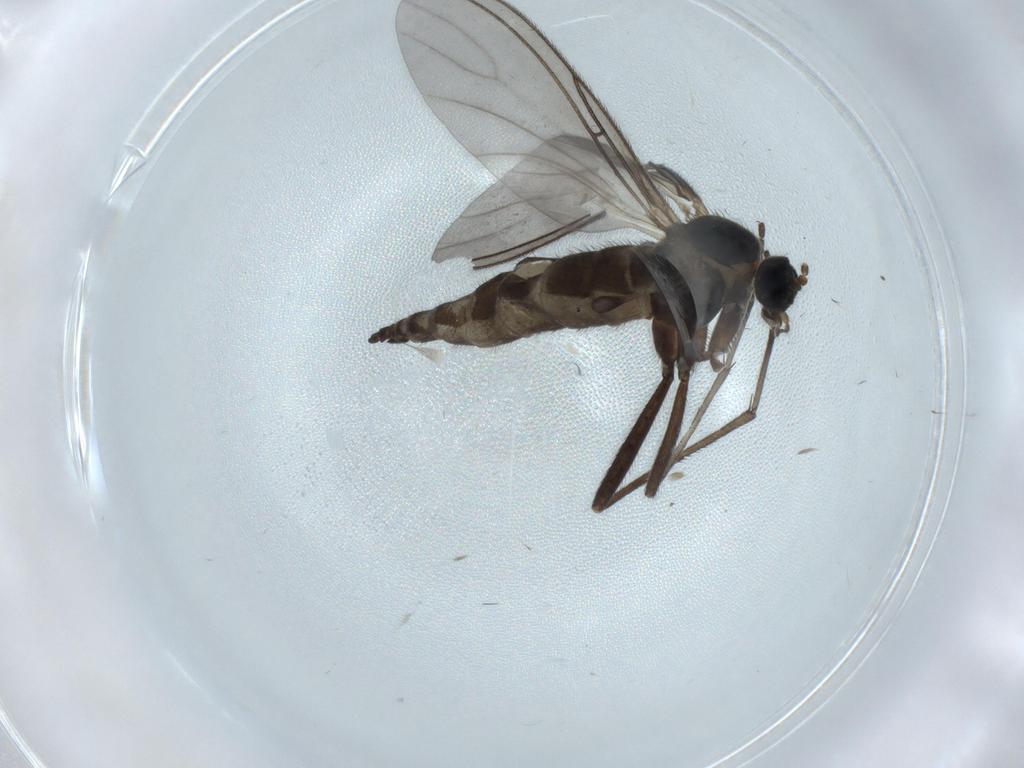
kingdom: Animalia
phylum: Arthropoda
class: Insecta
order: Diptera
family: Sciaridae
